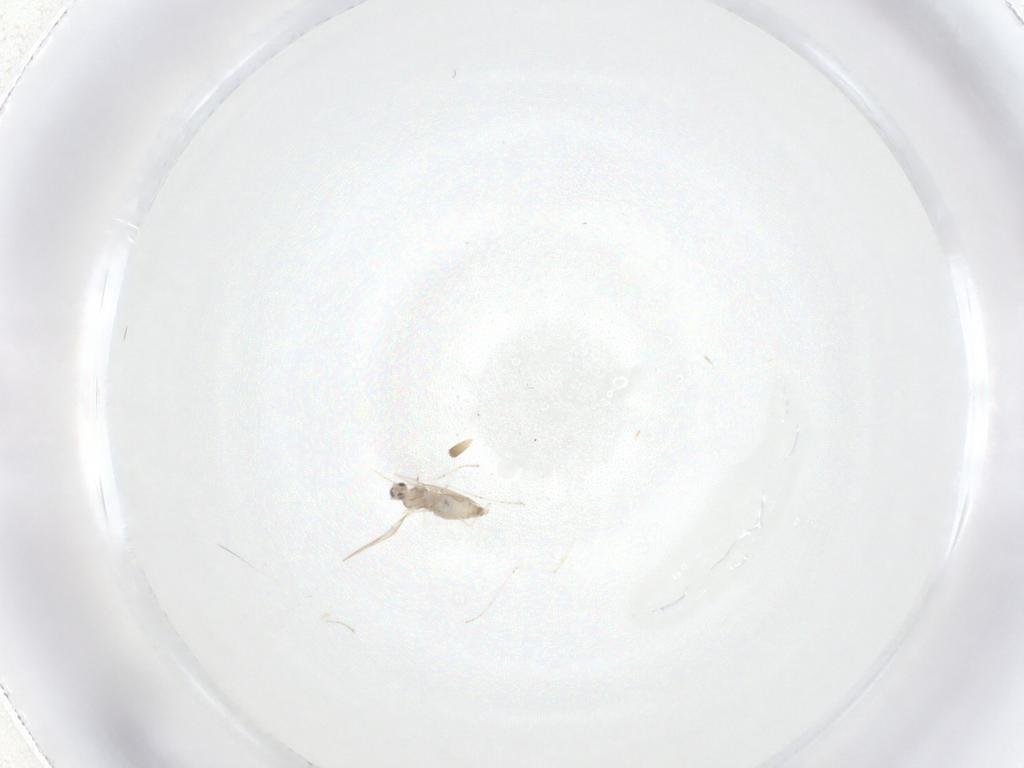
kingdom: Animalia
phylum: Arthropoda
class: Insecta
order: Diptera
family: Cecidomyiidae
